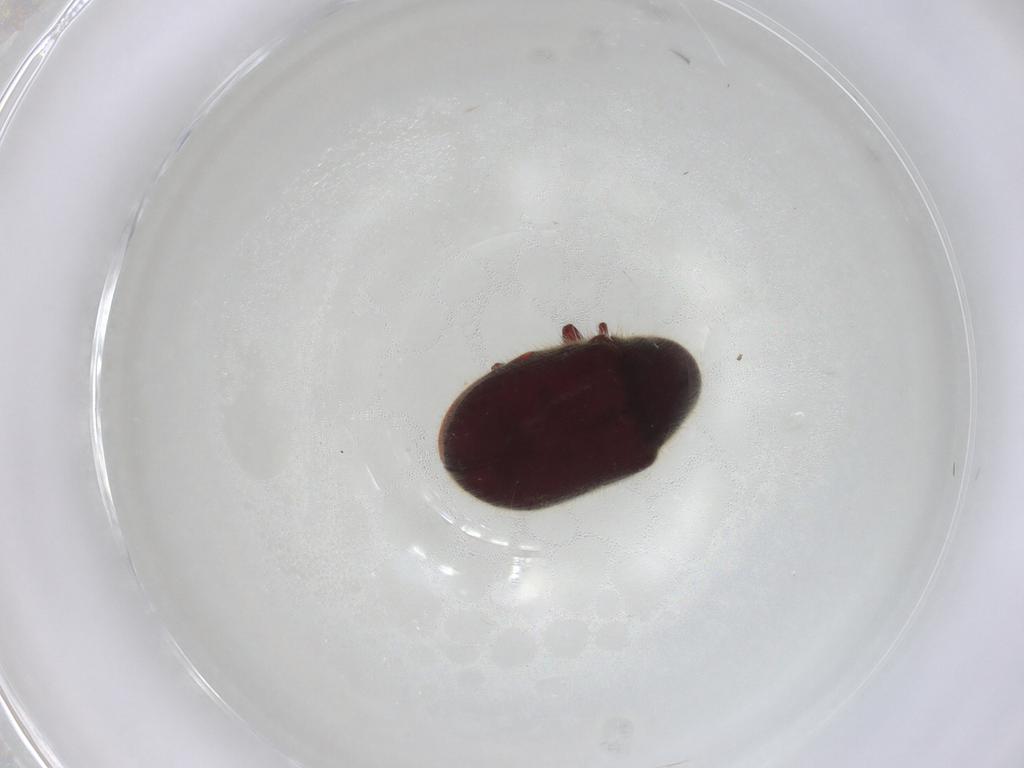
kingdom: Animalia
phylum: Arthropoda
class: Insecta
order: Coleoptera
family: Ptinidae
